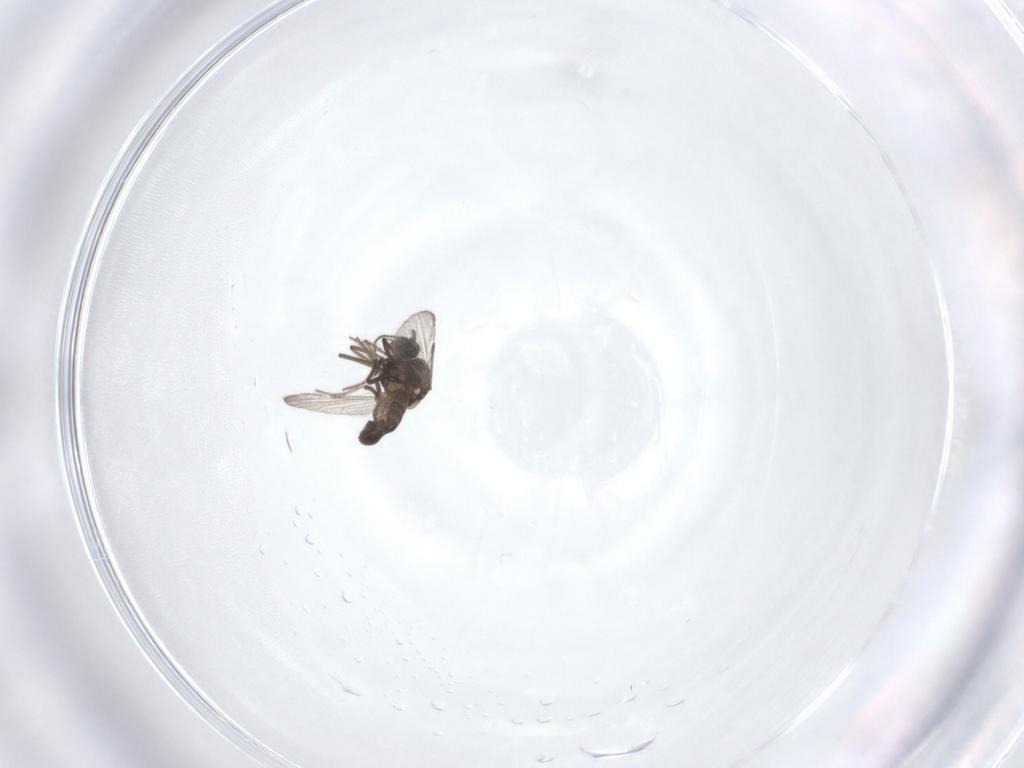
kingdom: Animalia
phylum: Arthropoda
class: Insecta
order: Diptera
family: Ceratopogonidae
